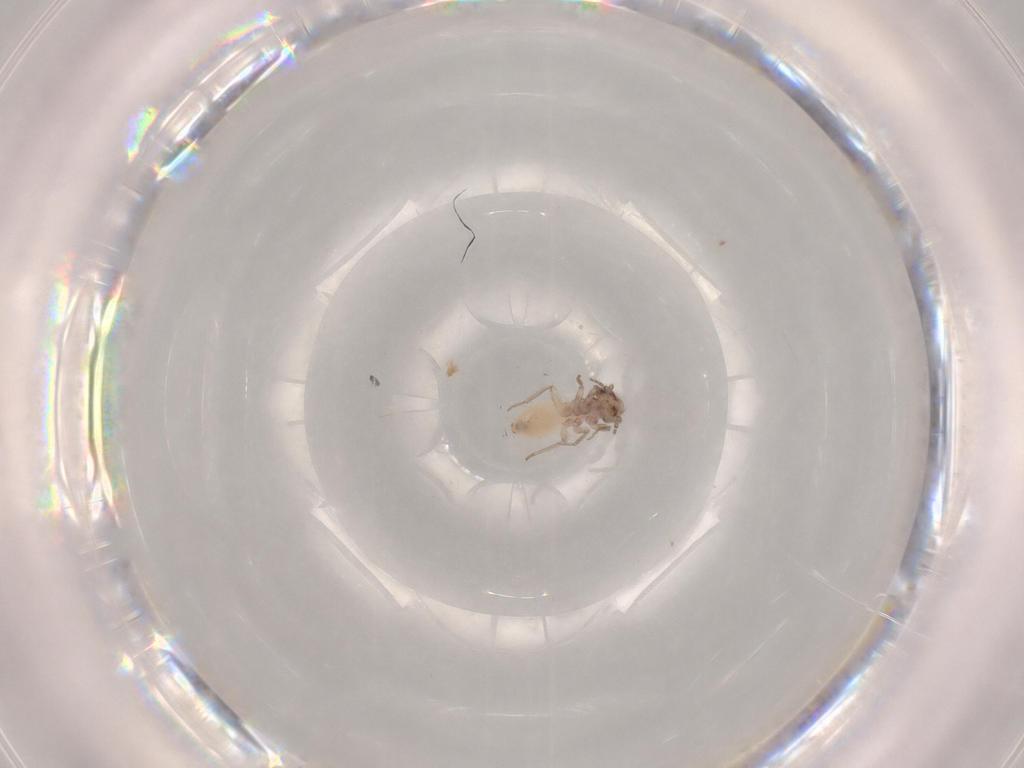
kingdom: Animalia
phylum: Arthropoda
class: Insecta
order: Psocodea
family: Lepidopsocidae
